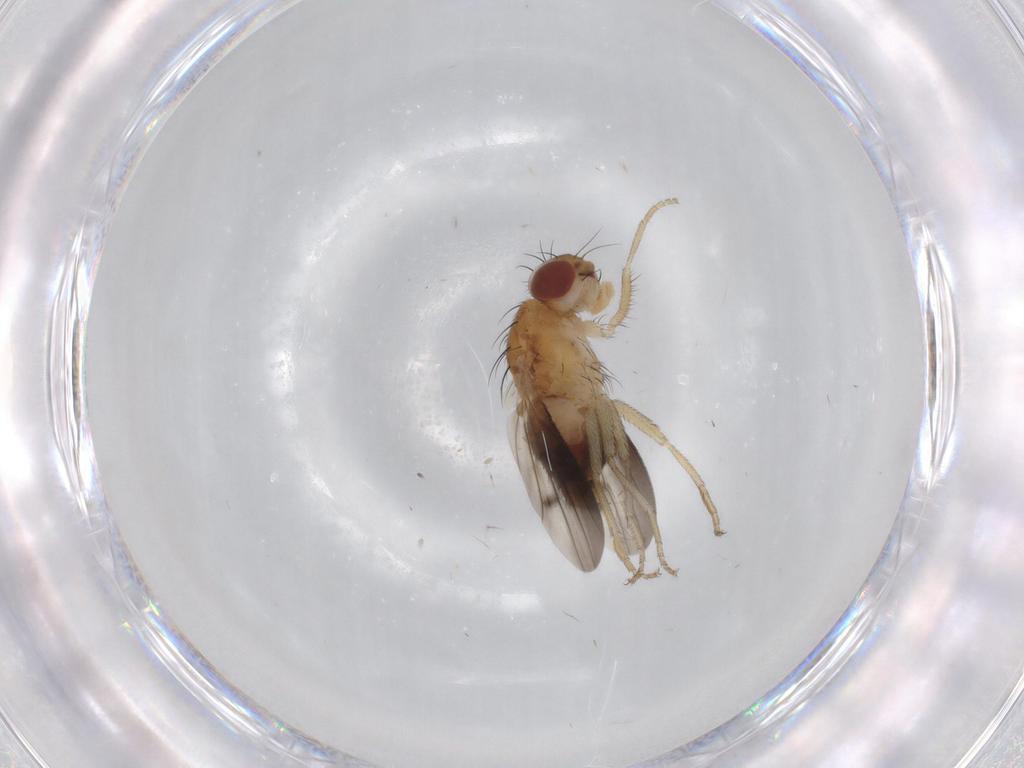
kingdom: Animalia
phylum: Arthropoda
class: Insecta
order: Diptera
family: Heleomyzidae
